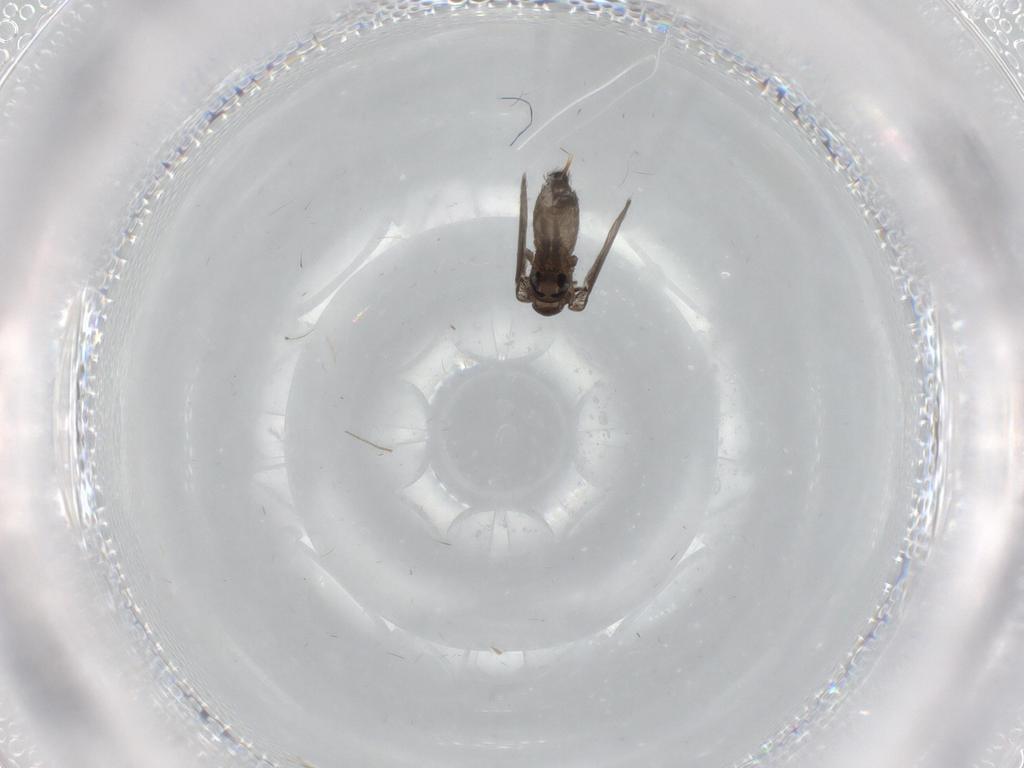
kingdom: Animalia
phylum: Arthropoda
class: Insecta
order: Diptera
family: Cecidomyiidae
